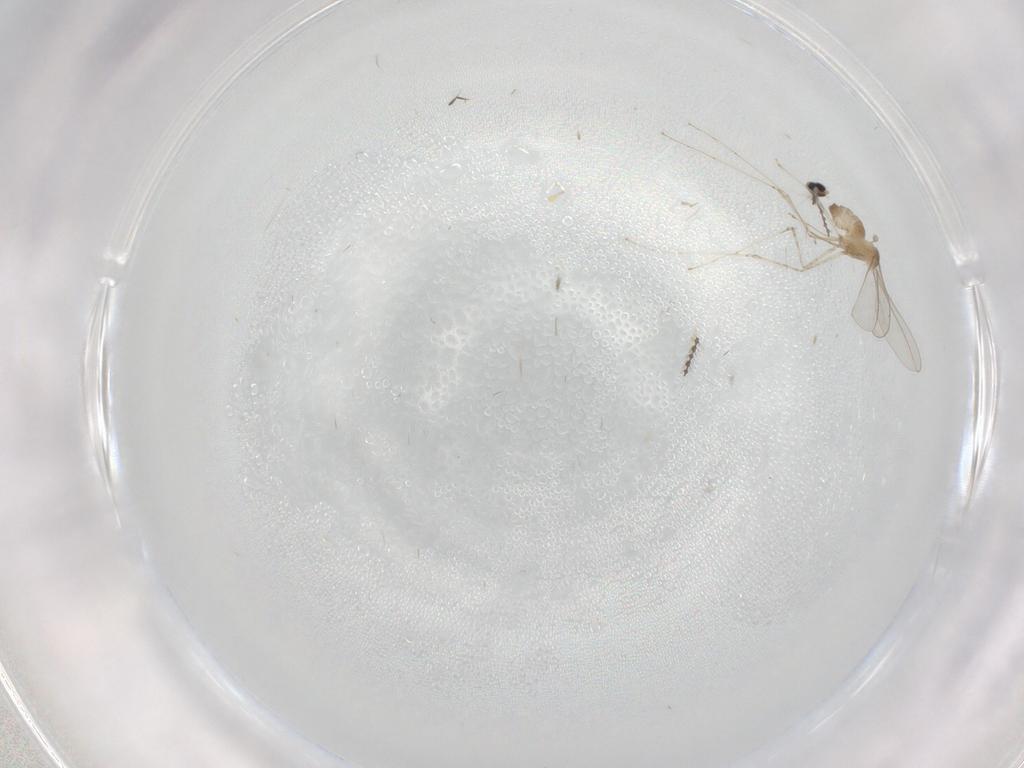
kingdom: Animalia
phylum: Arthropoda
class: Insecta
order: Diptera
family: Cecidomyiidae
